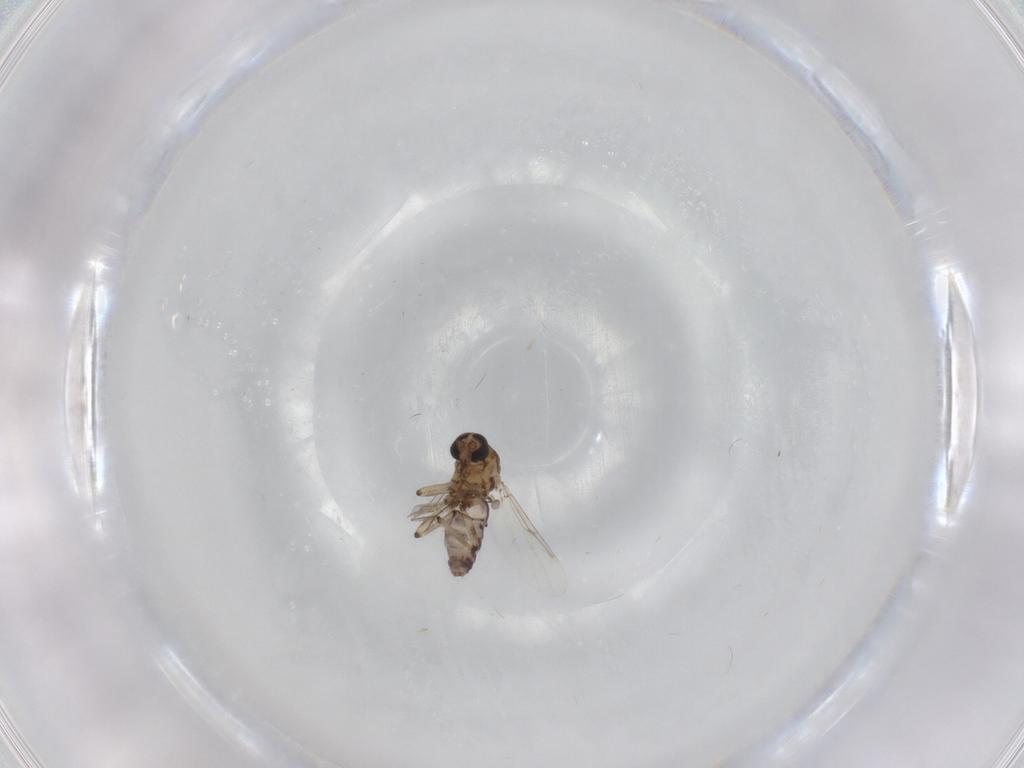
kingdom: Animalia
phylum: Arthropoda
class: Insecta
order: Diptera
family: Ceratopogonidae
